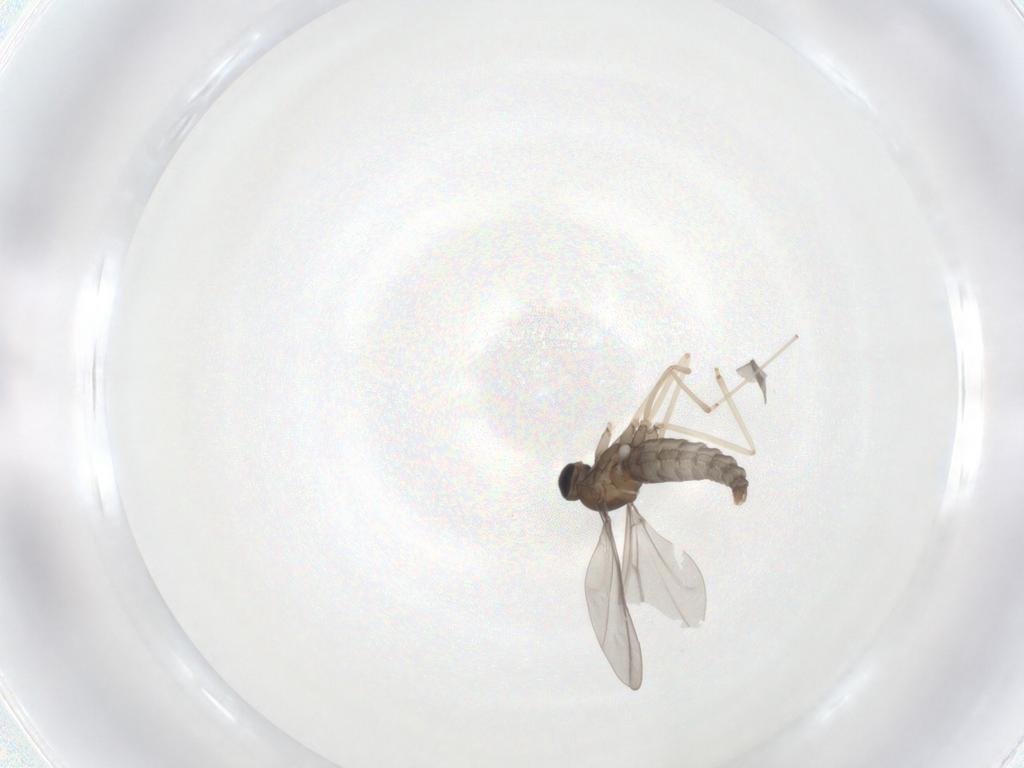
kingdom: Animalia
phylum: Arthropoda
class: Insecta
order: Diptera
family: Cecidomyiidae
